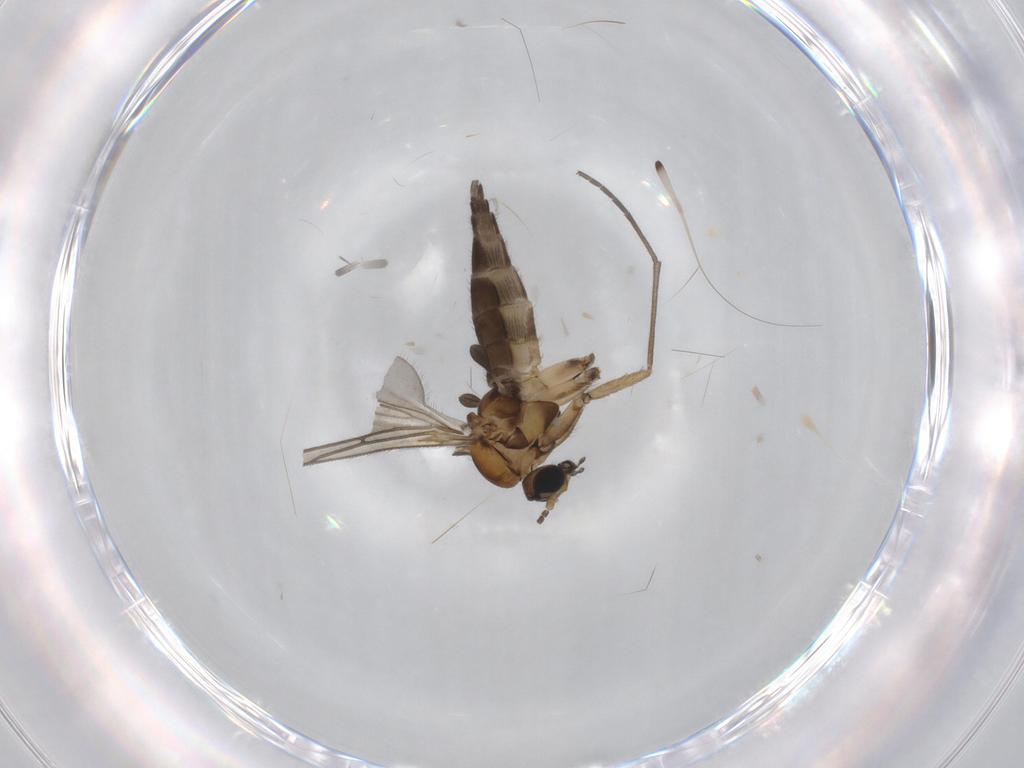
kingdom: Animalia
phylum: Arthropoda
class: Insecta
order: Diptera
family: Sciaridae
